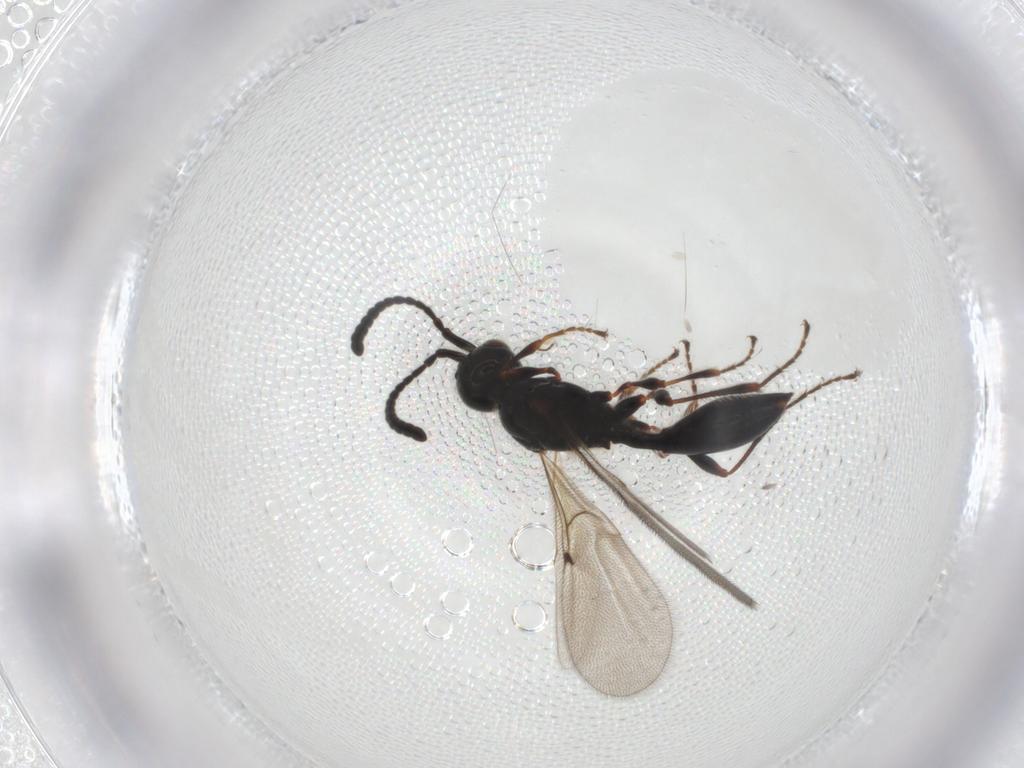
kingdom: Animalia
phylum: Arthropoda
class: Insecta
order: Hymenoptera
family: Diapriidae
